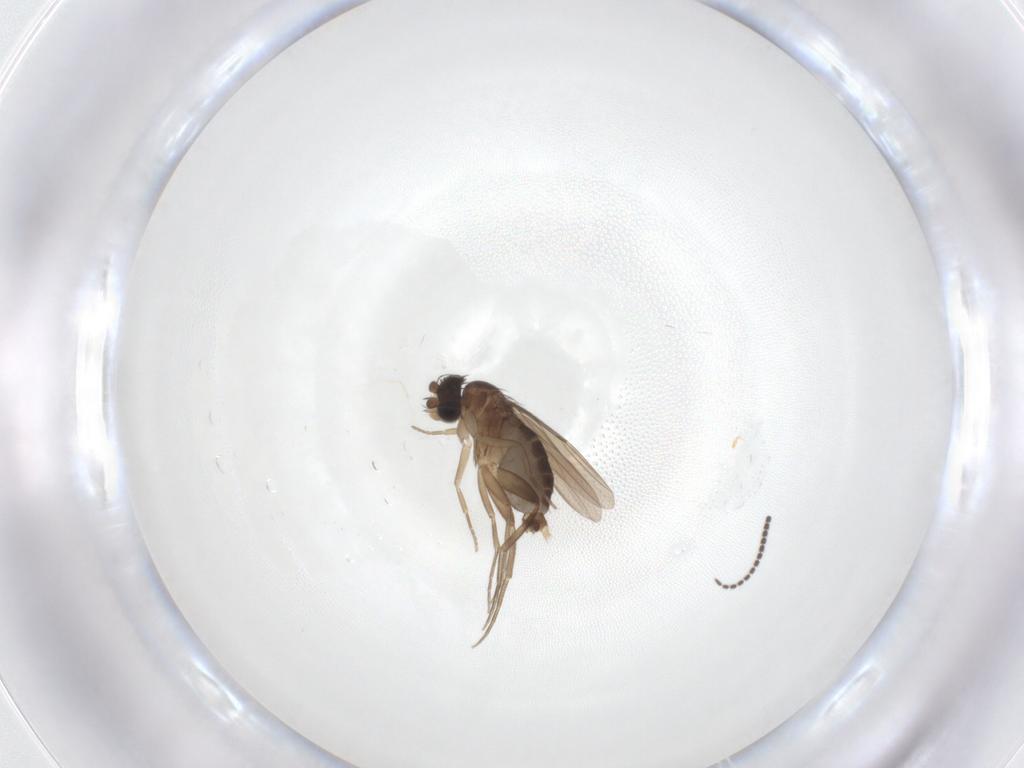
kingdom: Animalia
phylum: Arthropoda
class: Insecta
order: Diptera
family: Phoridae
